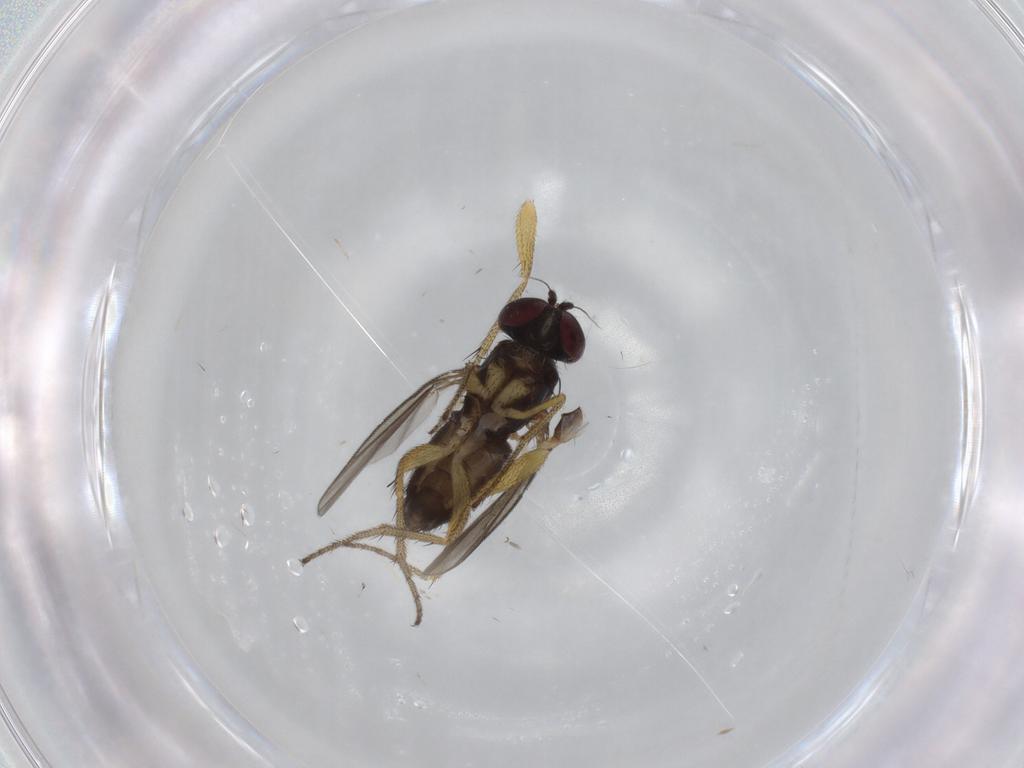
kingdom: Animalia
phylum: Arthropoda
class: Insecta
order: Diptera
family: Dolichopodidae
